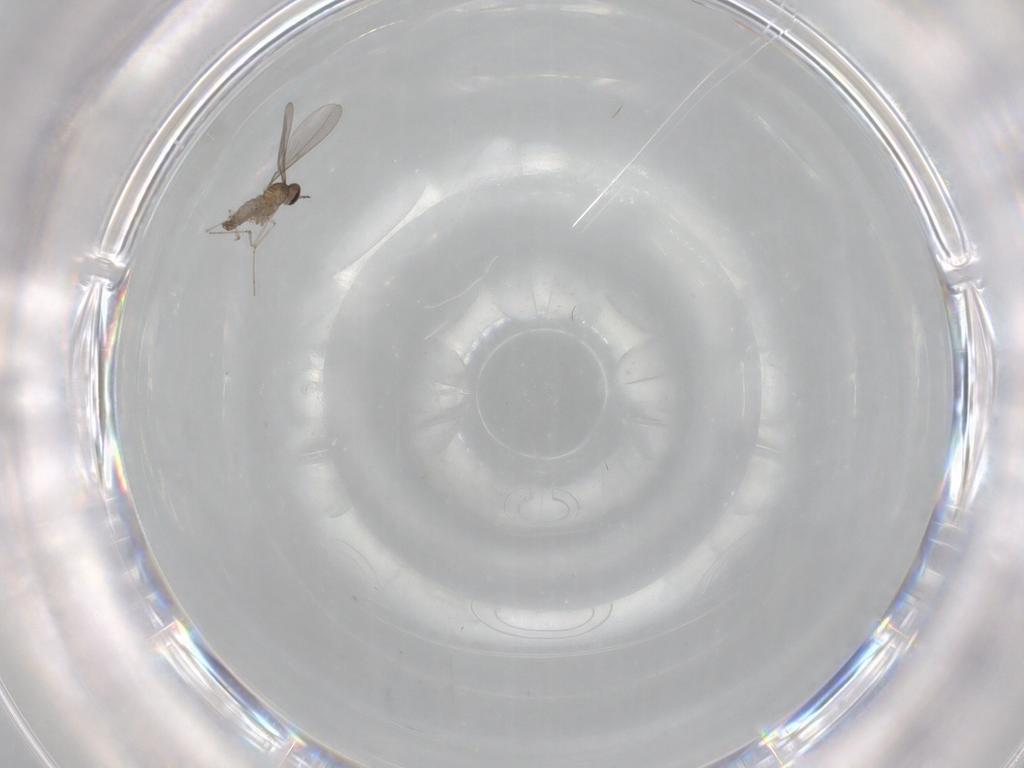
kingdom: Animalia
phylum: Arthropoda
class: Insecta
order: Diptera
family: Cecidomyiidae
